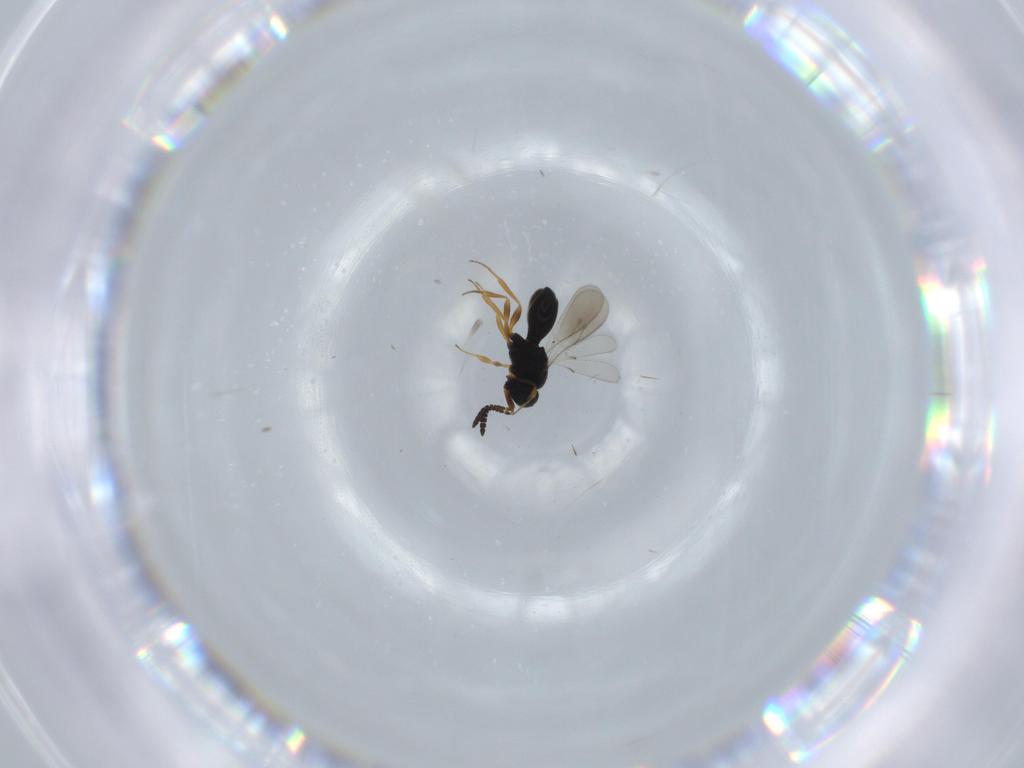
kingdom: Animalia
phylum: Arthropoda
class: Insecta
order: Hymenoptera
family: Scelionidae
